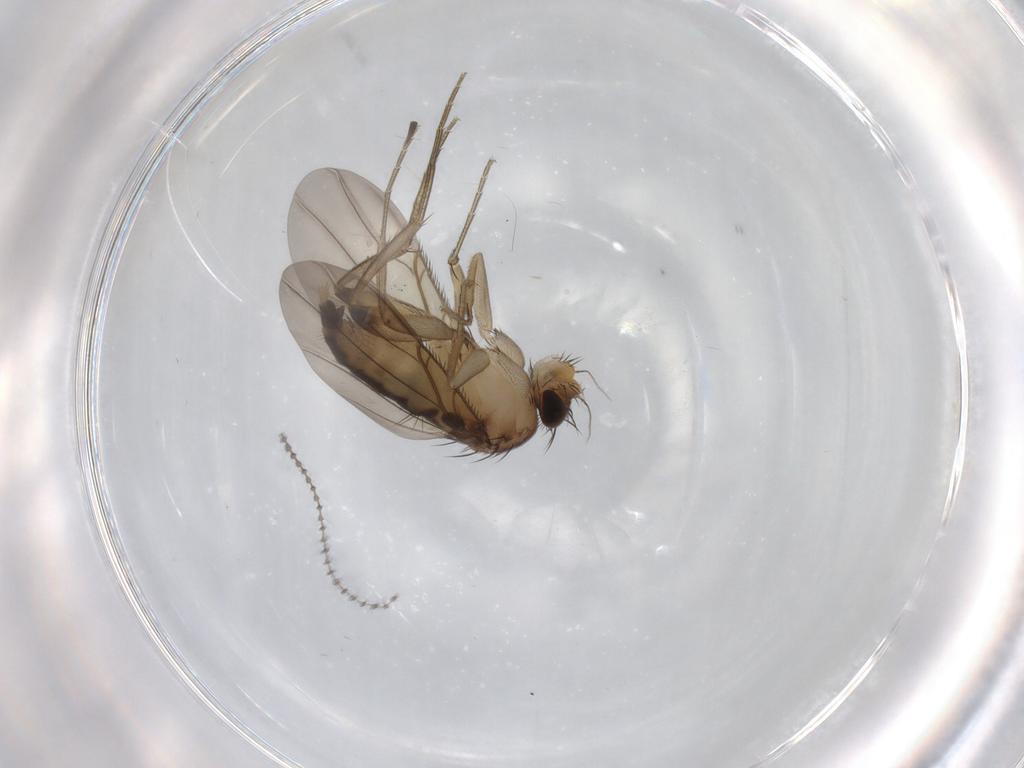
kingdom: Animalia
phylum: Arthropoda
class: Insecta
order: Diptera
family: Phoridae
